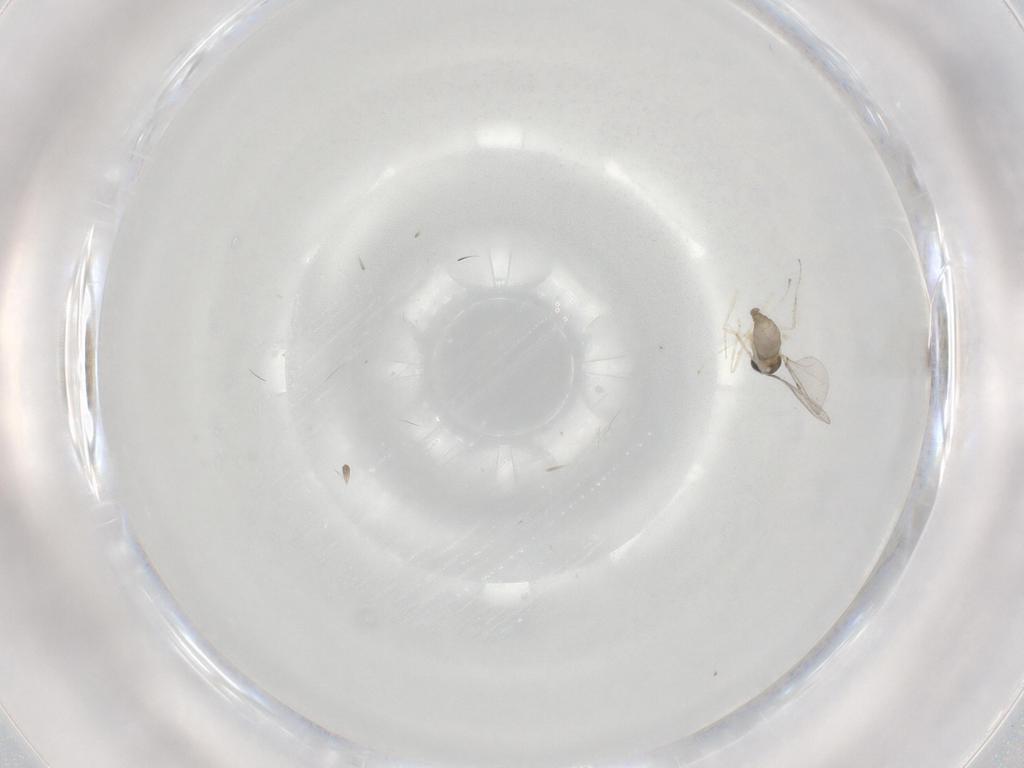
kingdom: Animalia
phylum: Arthropoda
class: Insecta
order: Diptera
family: Cecidomyiidae
